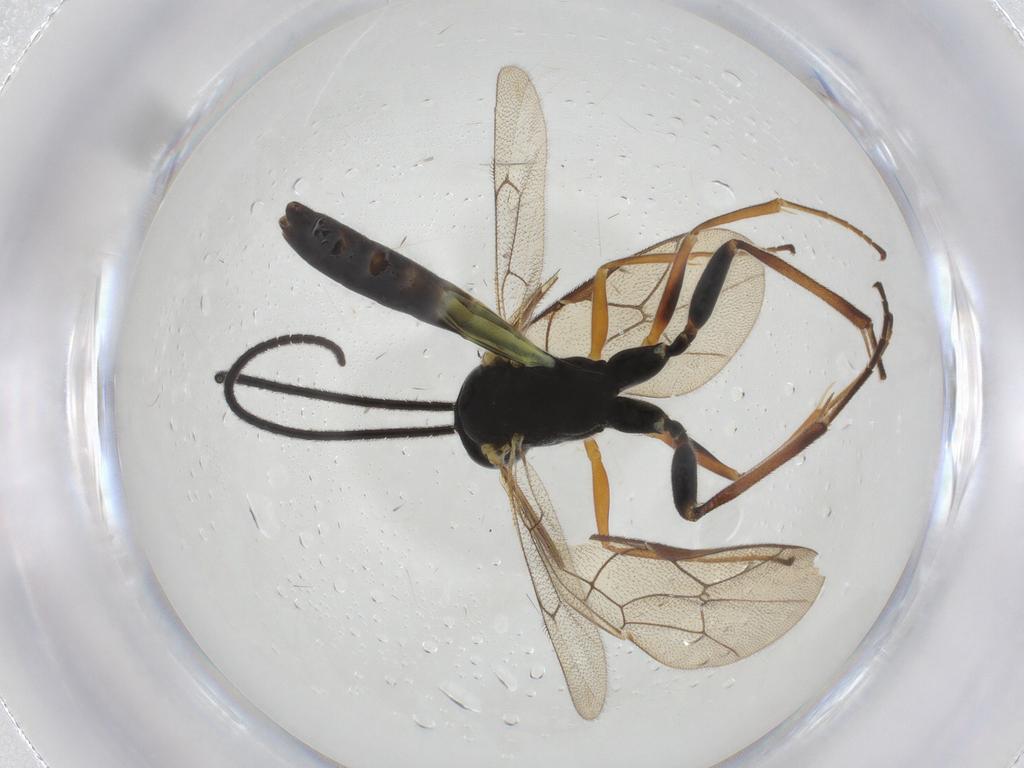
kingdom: Animalia
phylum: Arthropoda
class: Insecta
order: Hymenoptera
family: Ichneumonidae
